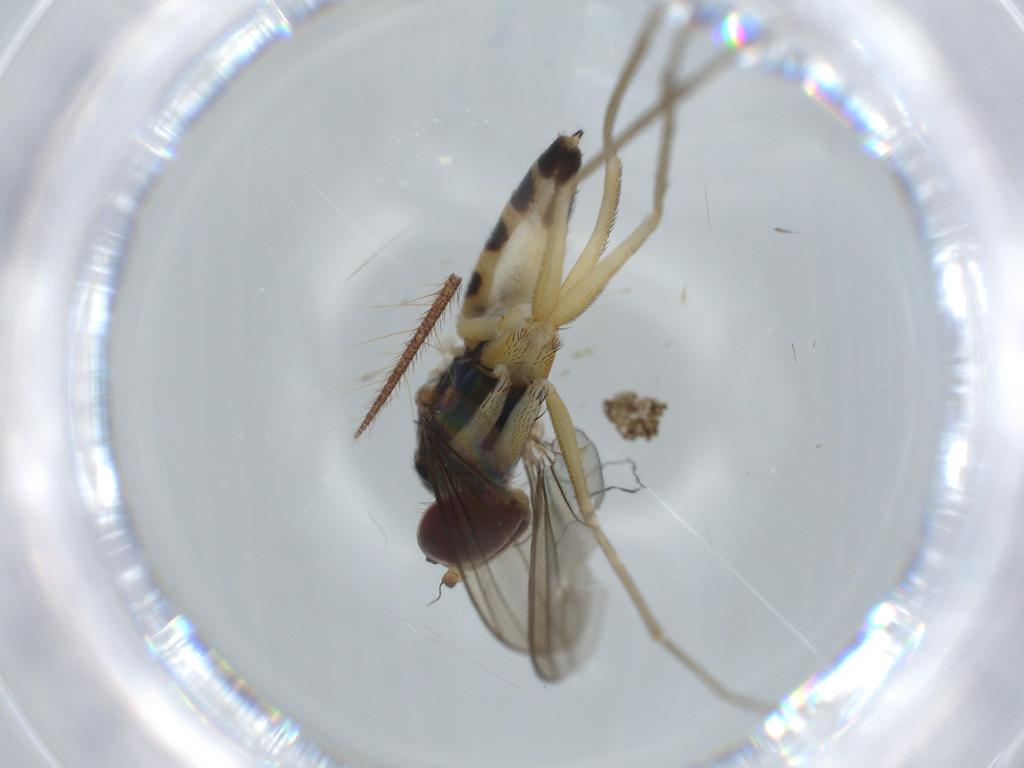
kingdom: Animalia
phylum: Arthropoda
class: Insecta
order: Diptera
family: Dolichopodidae
